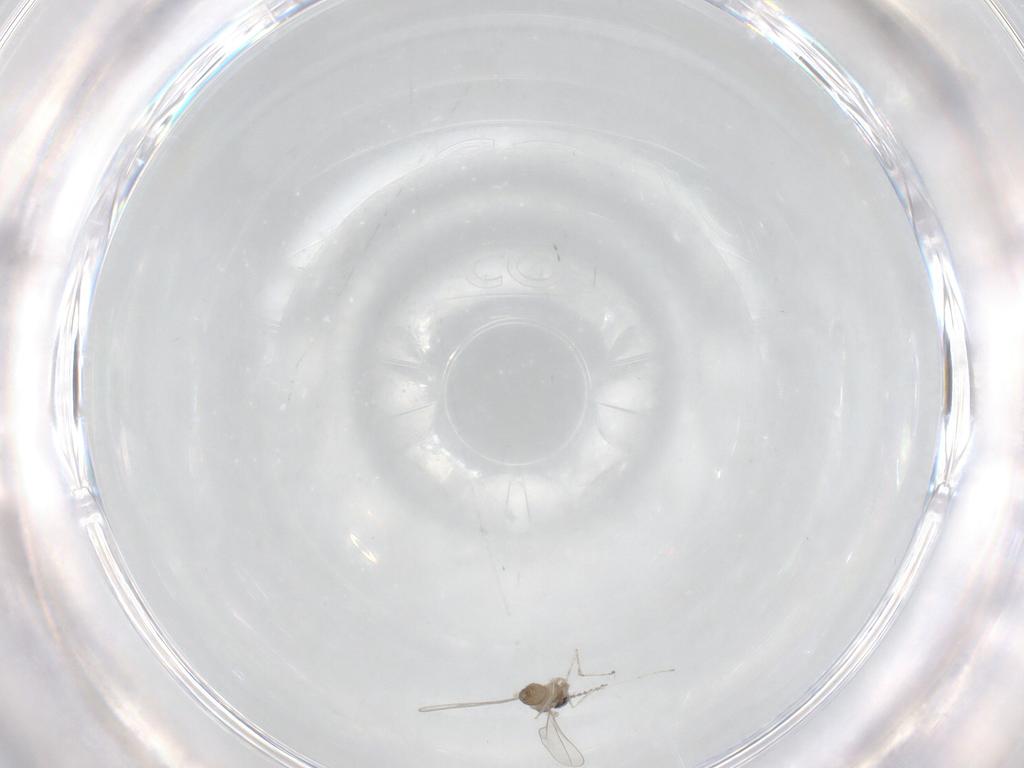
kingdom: Animalia
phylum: Arthropoda
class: Insecta
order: Diptera
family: Cecidomyiidae
